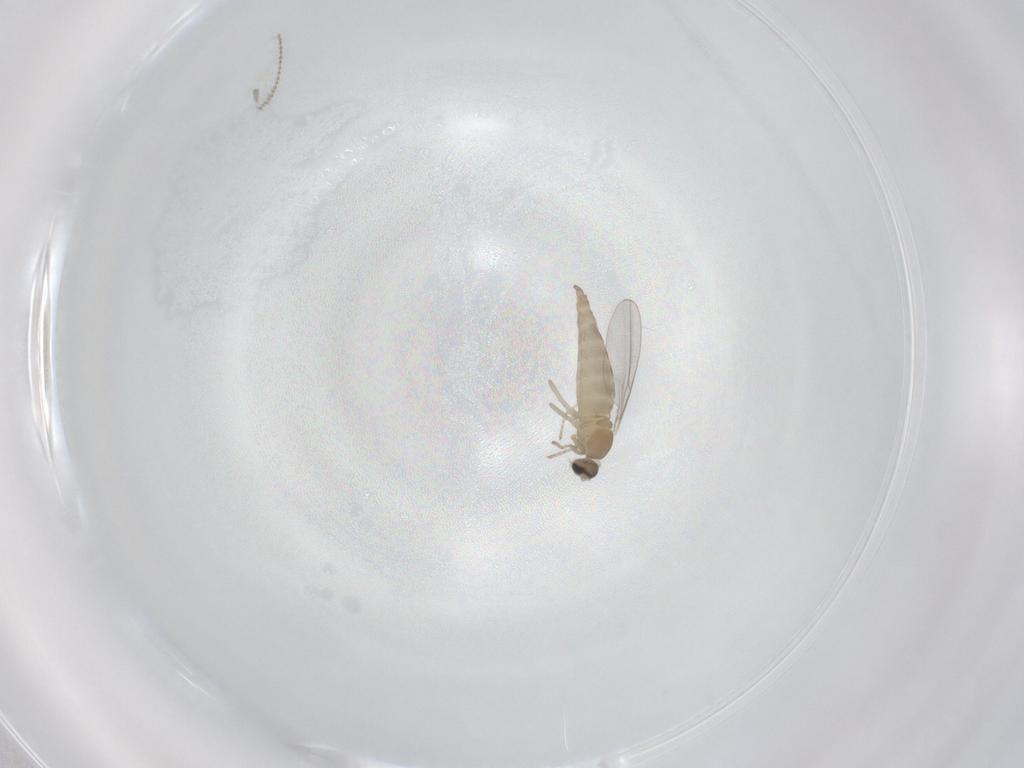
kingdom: Animalia
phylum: Arthropoda
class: Insecta
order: Diptera
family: Cecidomyiidae
